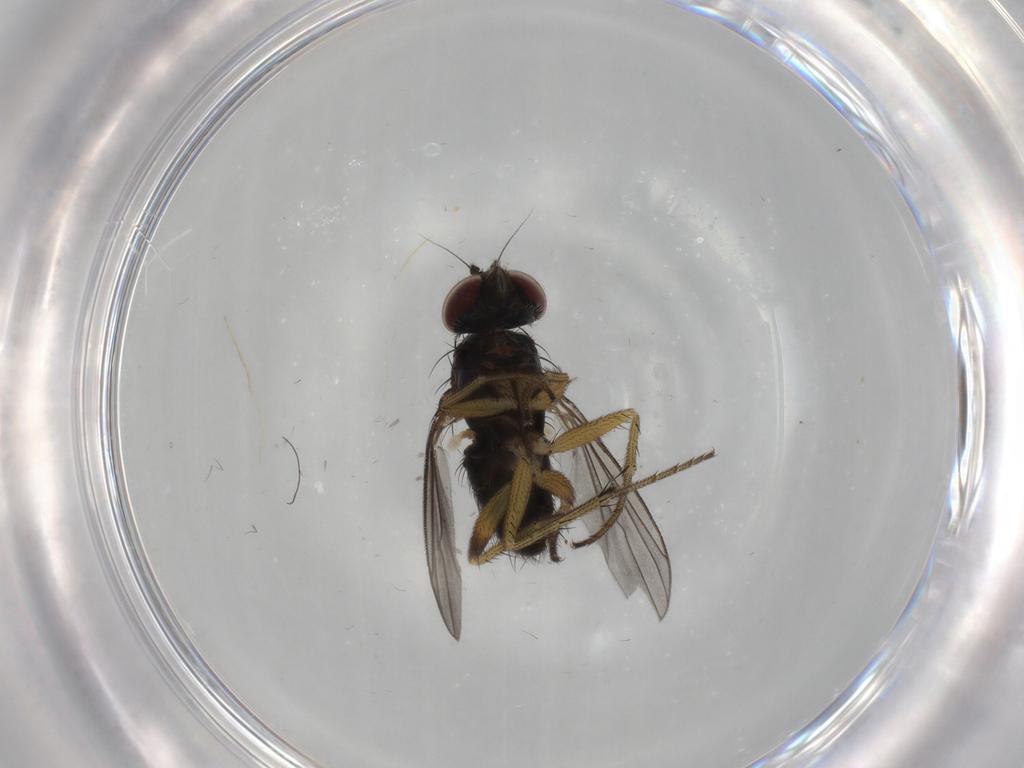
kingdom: Animalia
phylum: Arthropoda
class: Insecta
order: Diptera
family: Dolichopodidae
